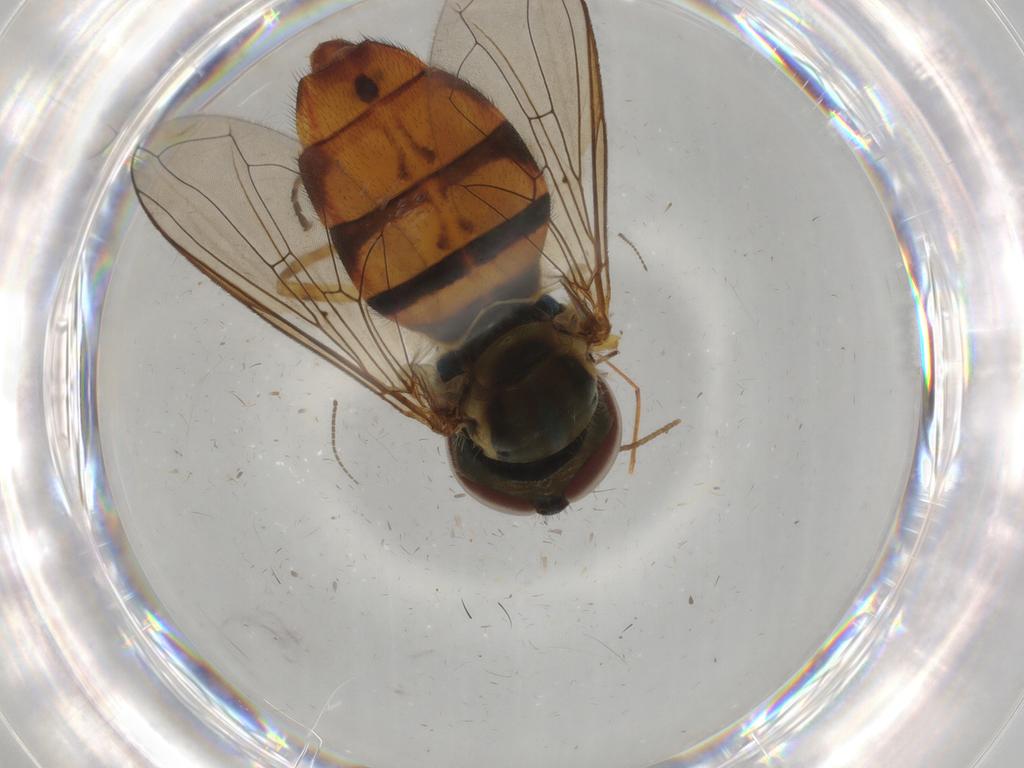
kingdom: Animalia
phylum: Arthropoda
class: Insecta
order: Diptera
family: Syrphidae
